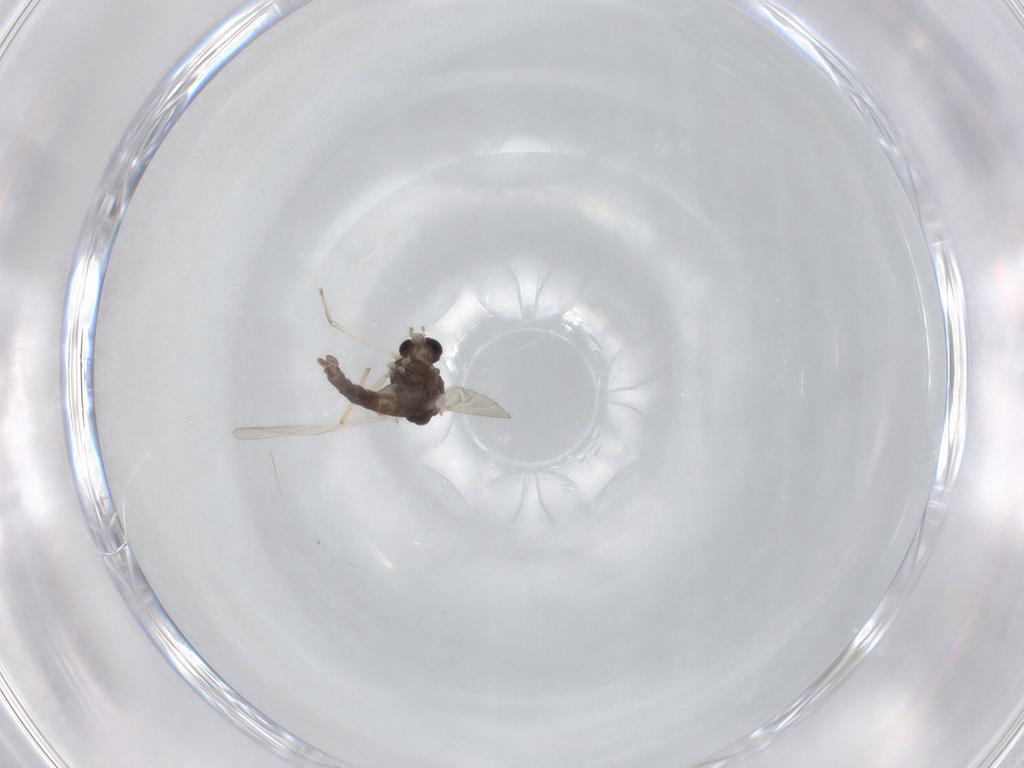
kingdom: Animalia
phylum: Arthropoda
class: Insecta
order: Diptera
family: Chironomidae
